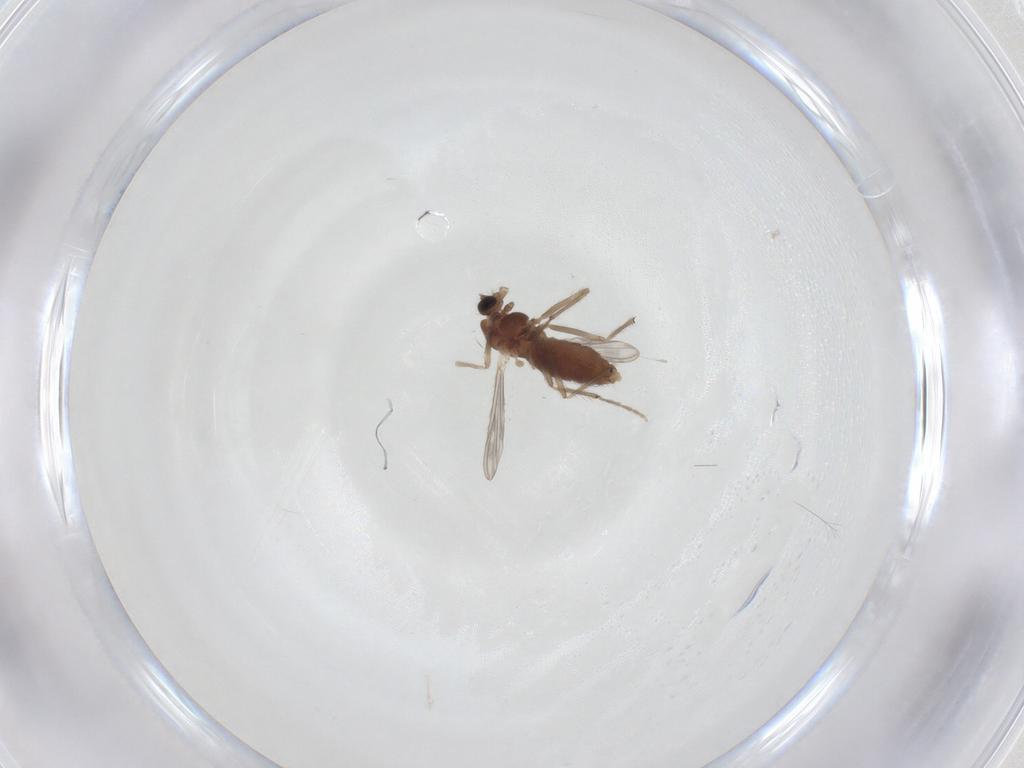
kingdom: Animalia
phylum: Arthropoda
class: Insecta
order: Diptera
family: Chironomidae
